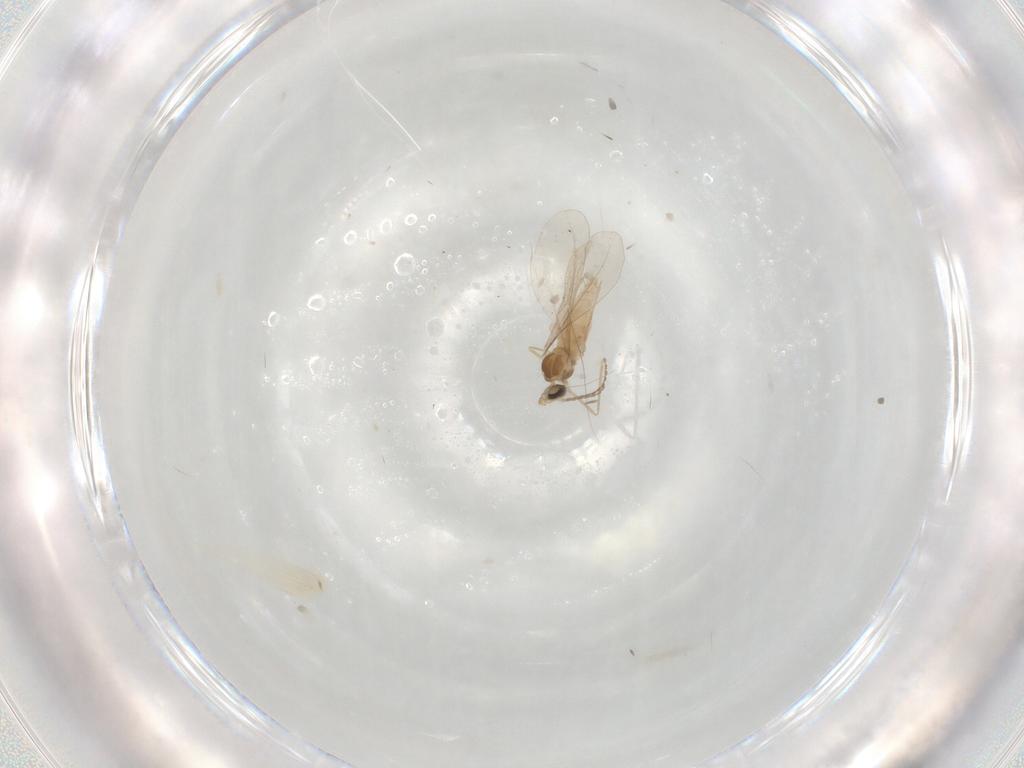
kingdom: Animalia
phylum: Arthropoda
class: Insecta
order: Diptera
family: Cecidomyiidae
